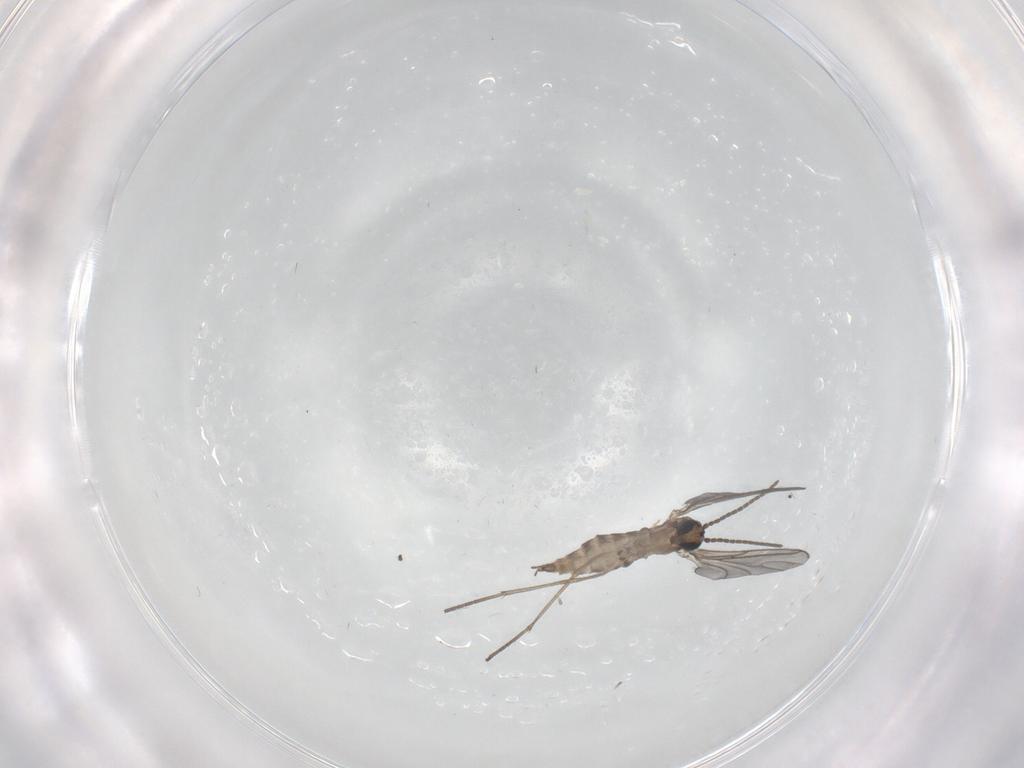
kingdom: Animalia
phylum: Arthropoda
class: Insecta
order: Diptera
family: Sciaridae
